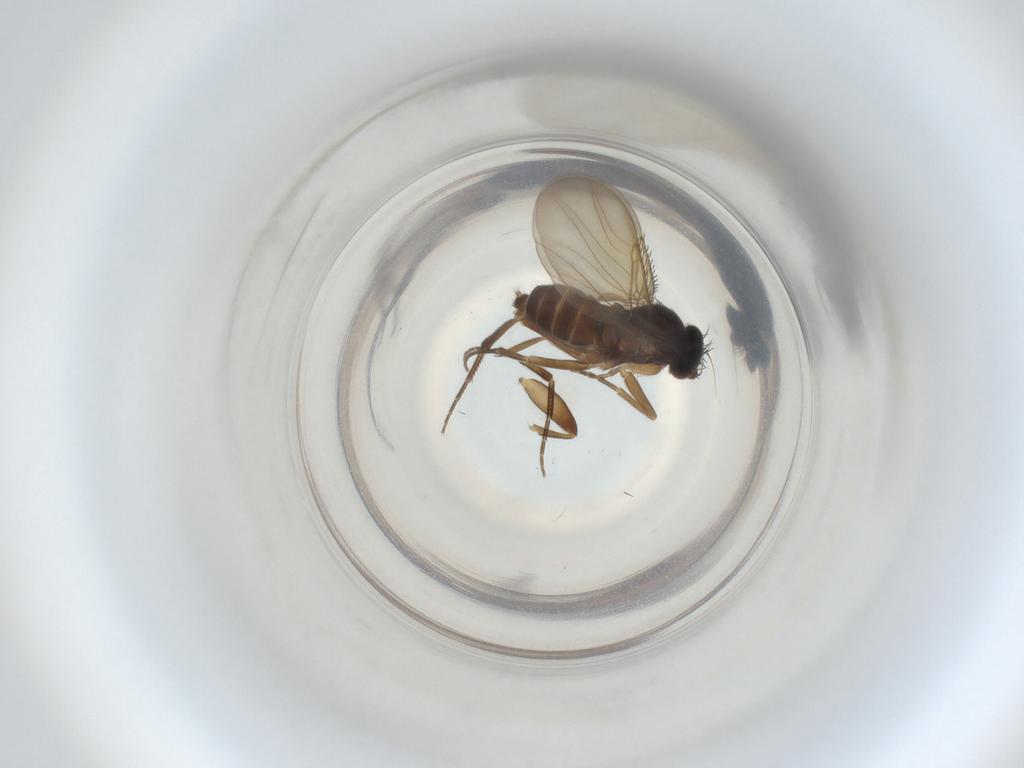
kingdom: Animalia
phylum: Arthropoda
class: Insecta
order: Diptera
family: Phoridae
